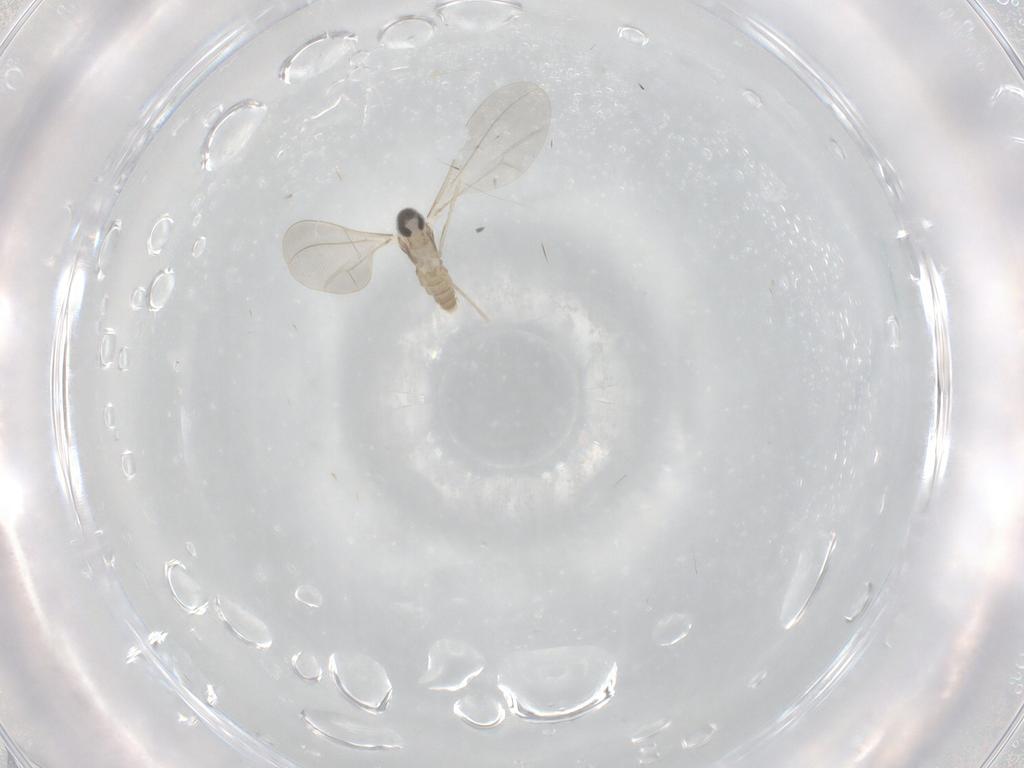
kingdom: Animalia
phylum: Arthropoda
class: Insecta
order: Diptera
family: Cecidomyiidae
